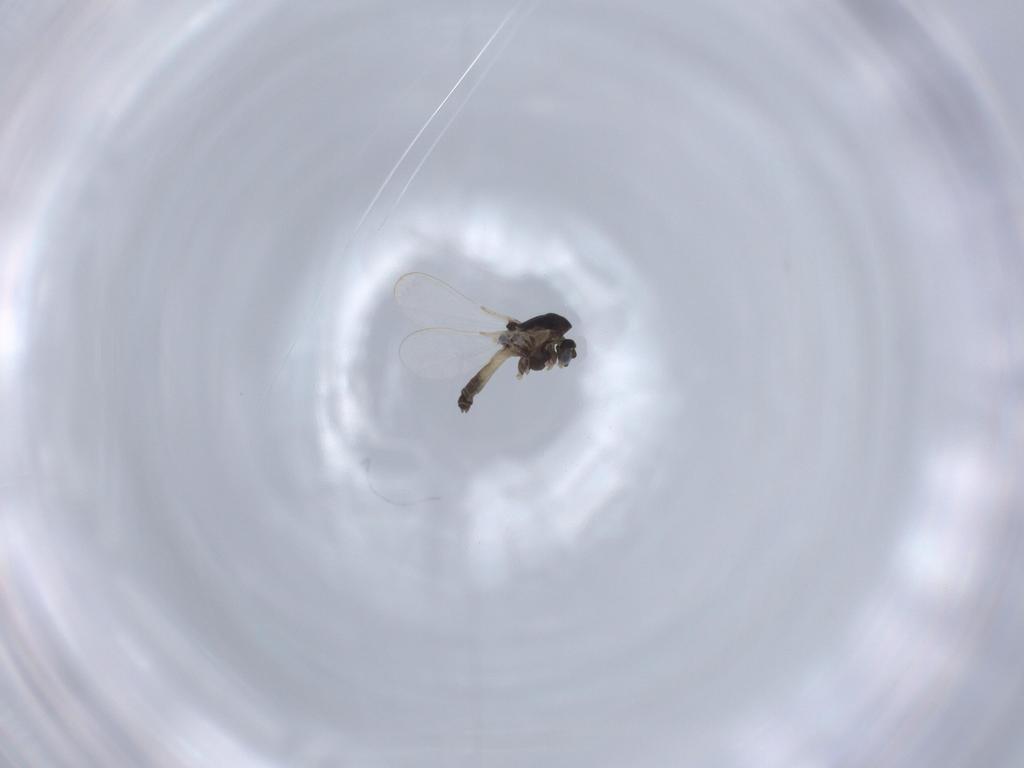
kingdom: Animalia
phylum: Arthropoda
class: Insecta
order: Diptera
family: Chironomidae
